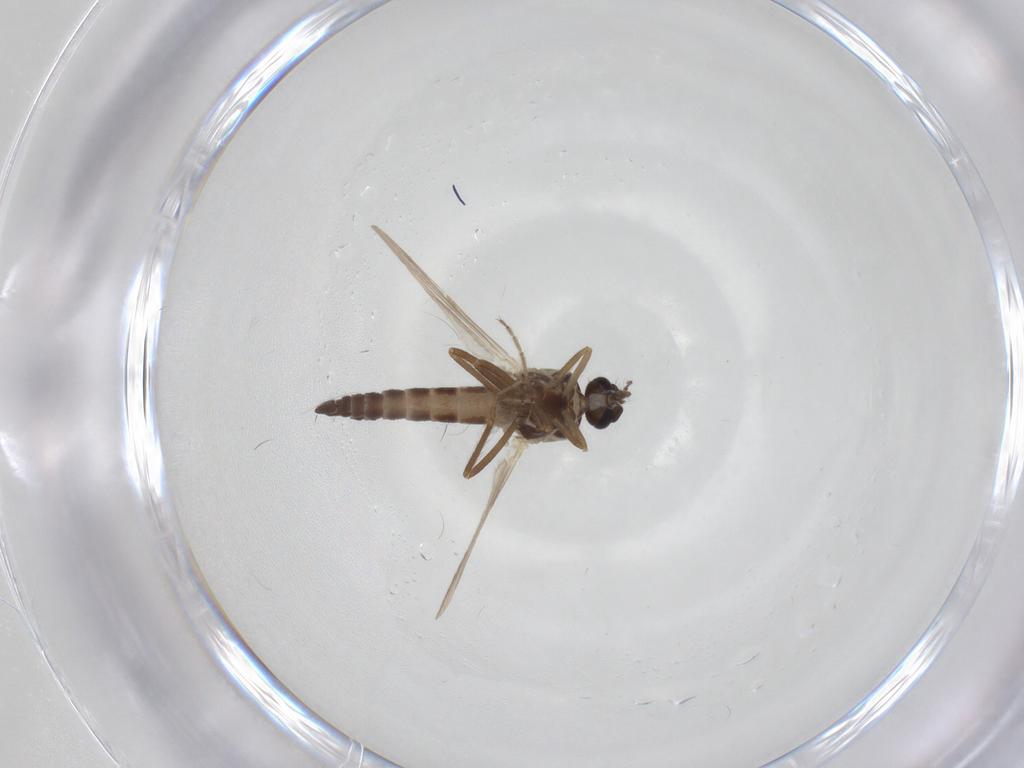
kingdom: Animalia
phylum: Arthropoda
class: Insecta
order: Diptera
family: Ceratopogonidae
